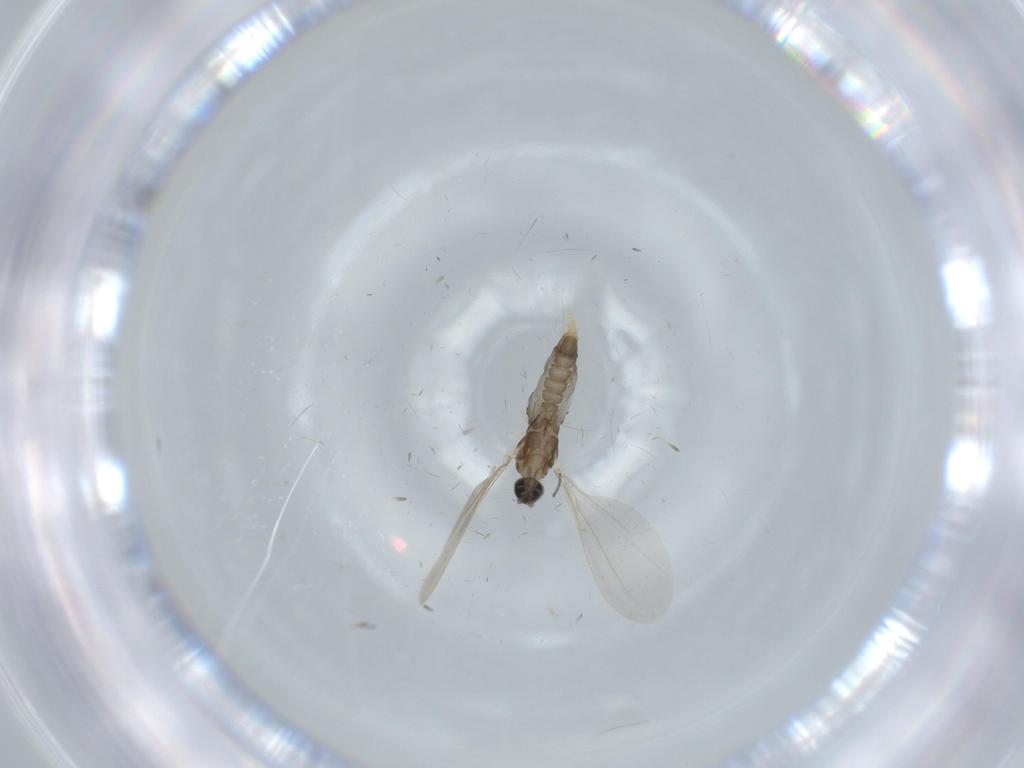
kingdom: Animalia
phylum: Arthropoda
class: Insecta
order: Diptera
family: Cecidomyiidae
